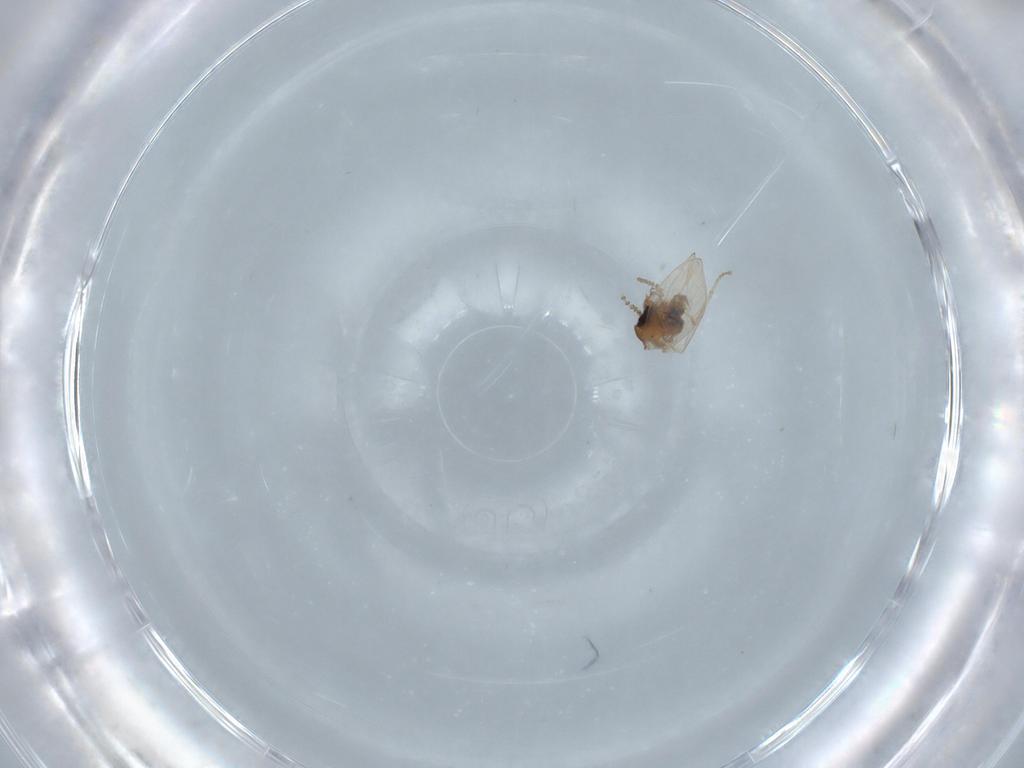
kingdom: Animalia
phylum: Arthropoda
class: Insecta
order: Diptera
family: Psychodidae
